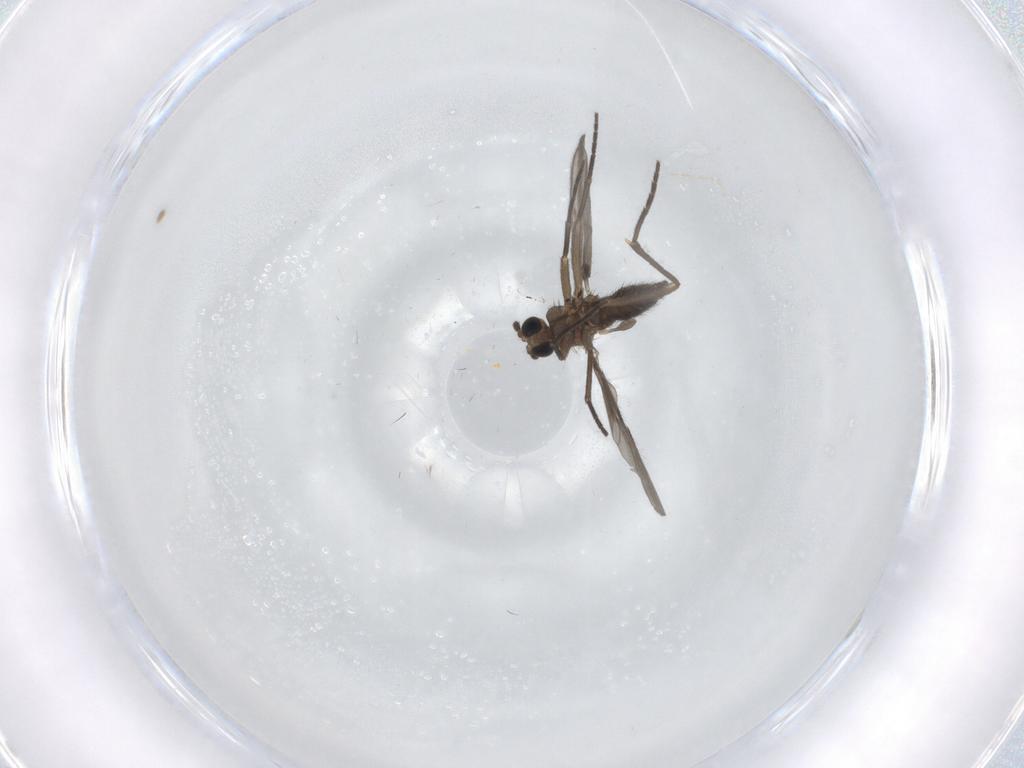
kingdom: Animalia
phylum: Arthropoda
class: Insecta
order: Diptera
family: Sciaridae
